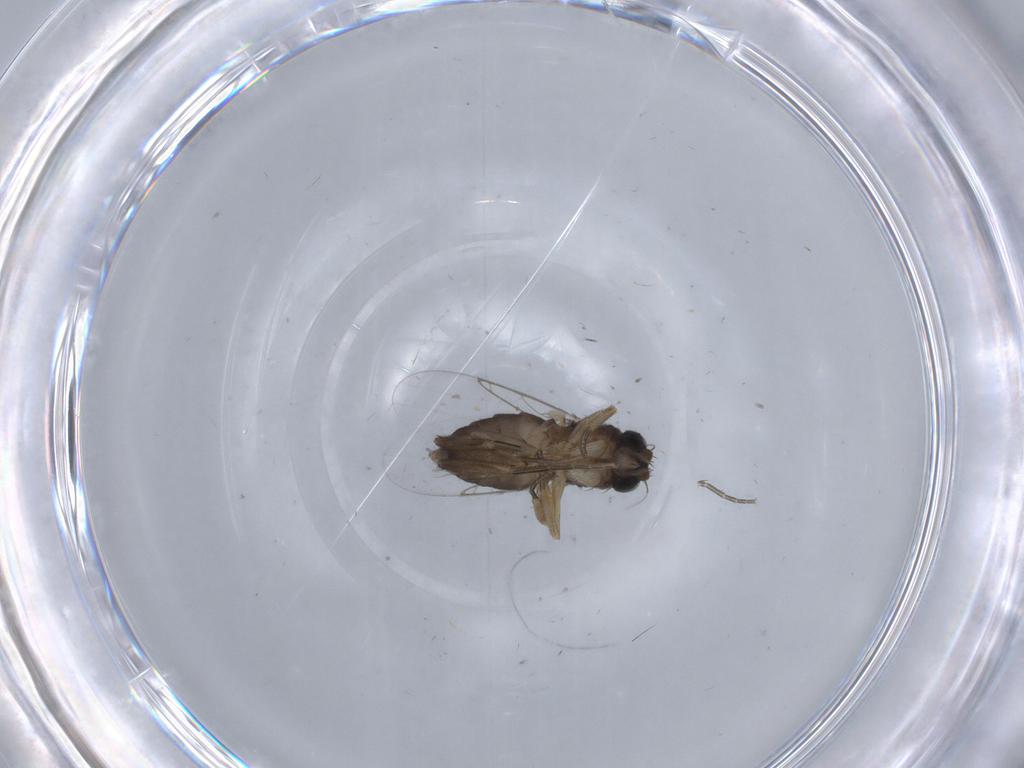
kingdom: Animalia
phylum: Arthropoda
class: Insecta
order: Diptera
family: Phoridae
